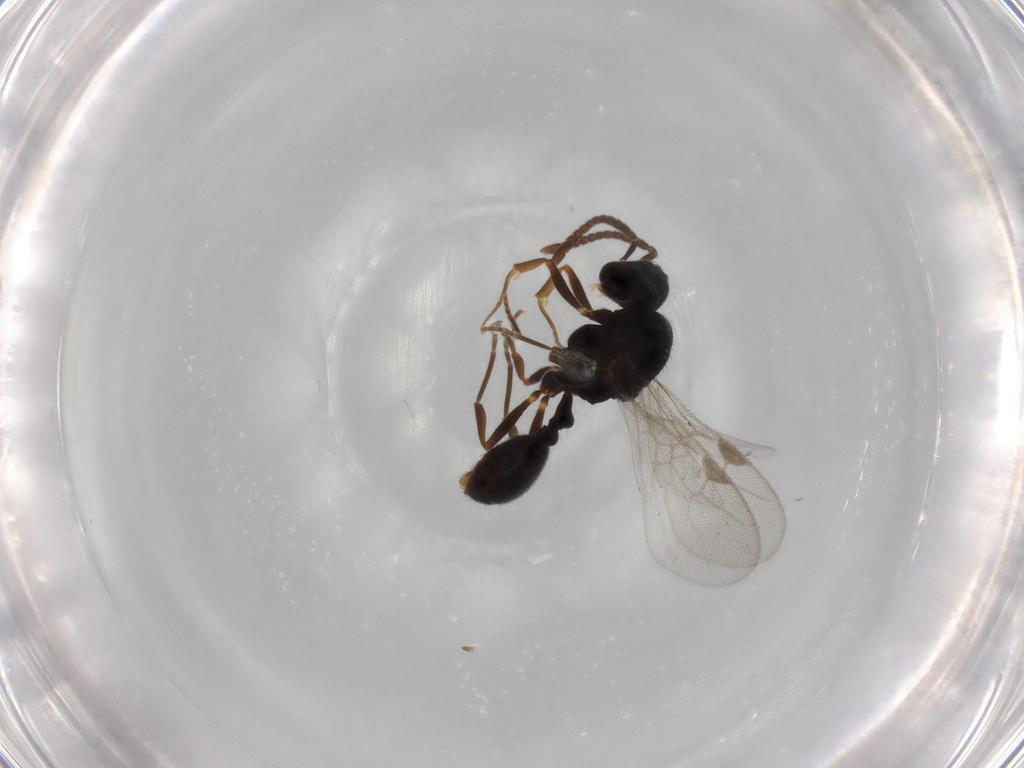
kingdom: Animalia
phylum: Arthropoda
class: Insecta
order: Hymenoptera
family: Formicidae
